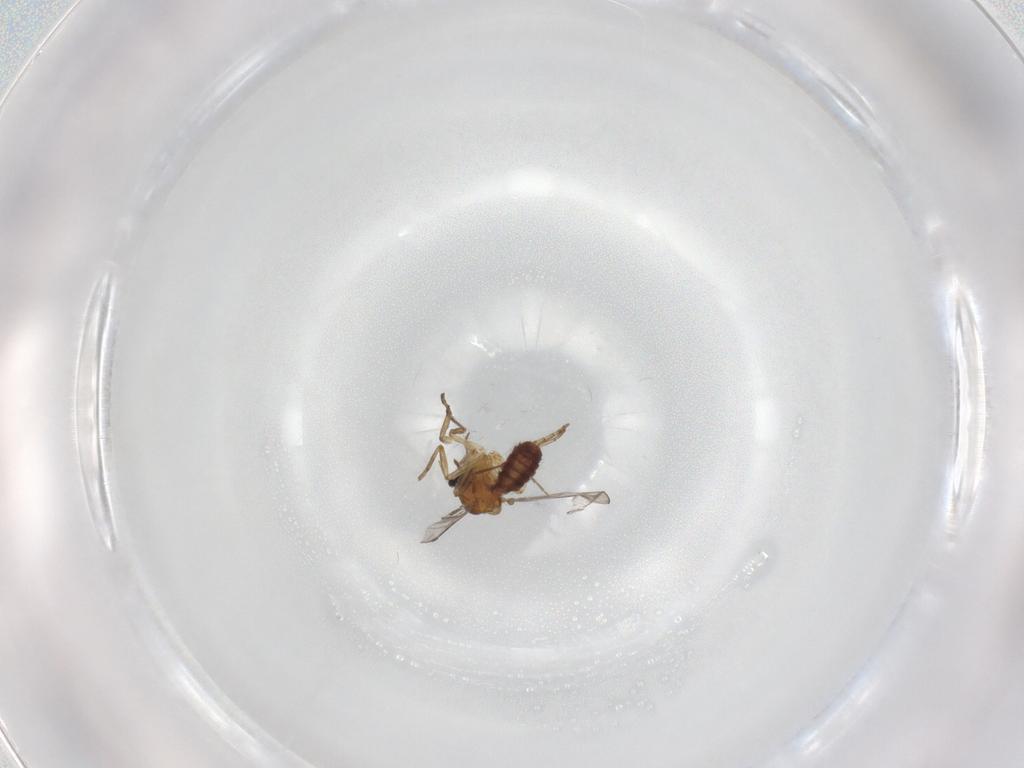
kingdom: Animalia
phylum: Arthropoda
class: Insecta
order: Diptera
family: Ceratopogonidae
